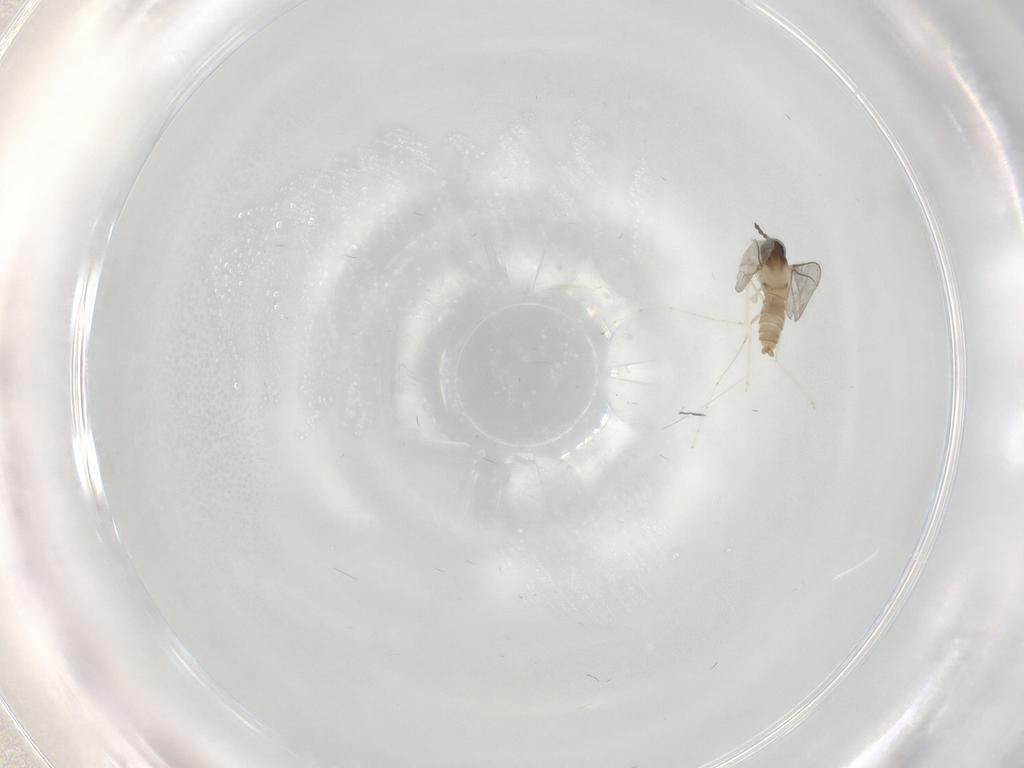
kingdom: Animalia
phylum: Arthropoda
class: Insecta
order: Diptera
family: Cecidomyiidae
